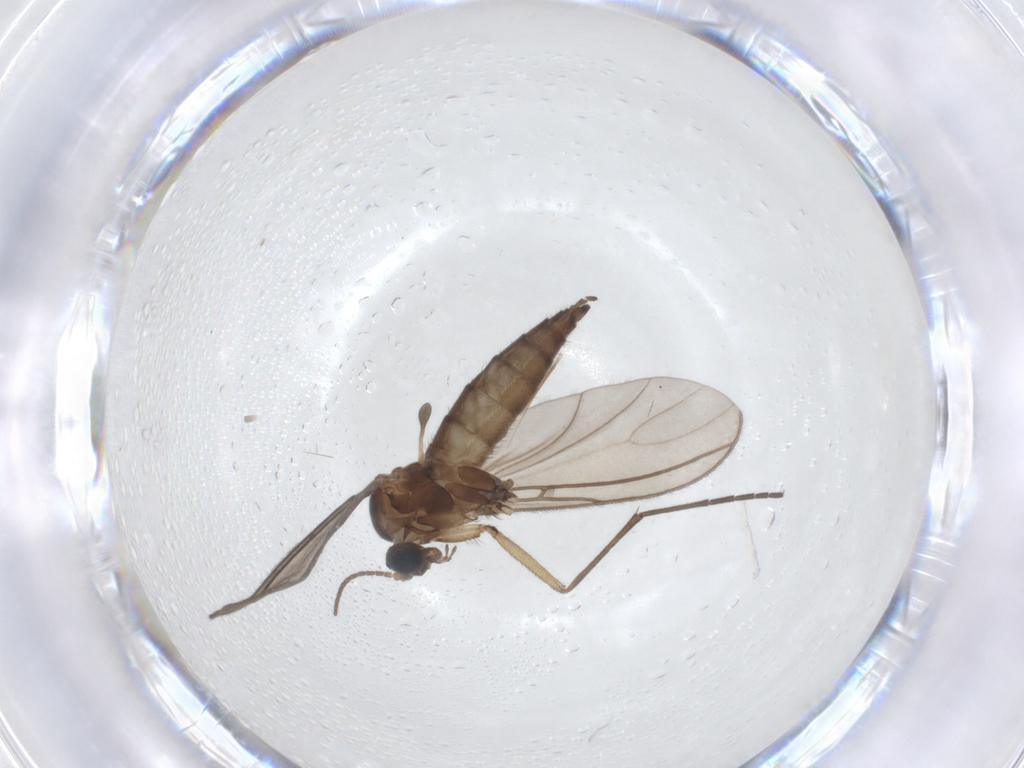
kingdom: Animalia
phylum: Arthropoda
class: Insecta
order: Diptera
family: Sciaridae
